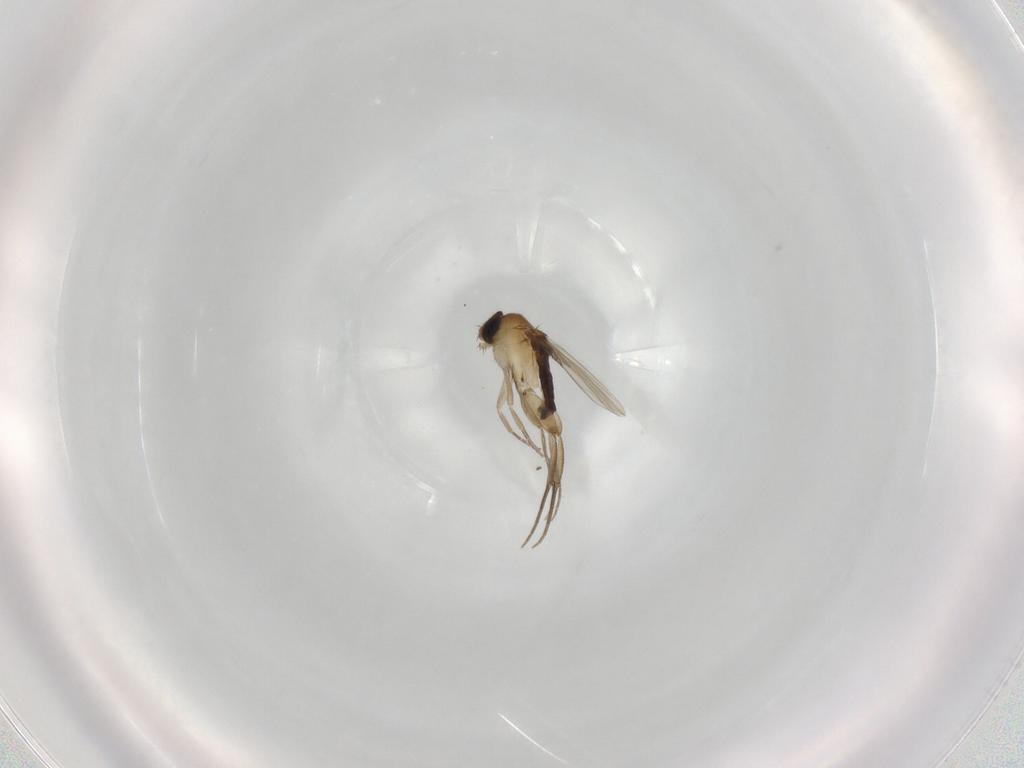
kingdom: Animalia
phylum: Arthropoda
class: Insecta
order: Diptera
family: Phoridae
